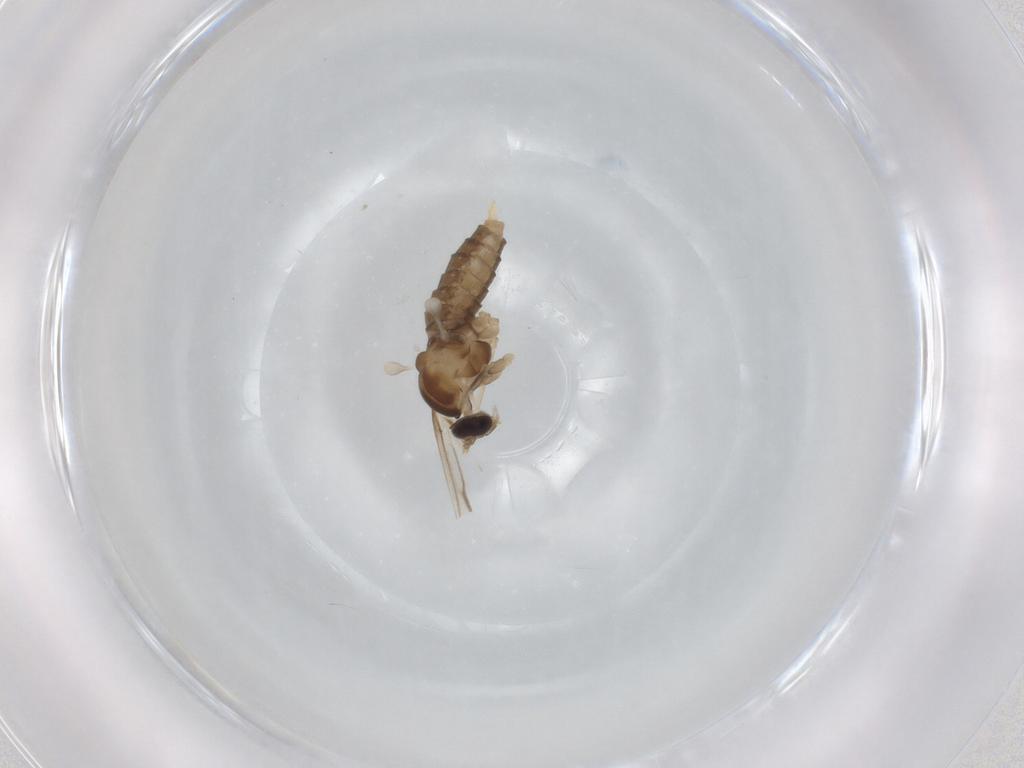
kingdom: Animalia
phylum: Arthropoda
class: Insecta
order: Diptera
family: Cecidomyiidae
